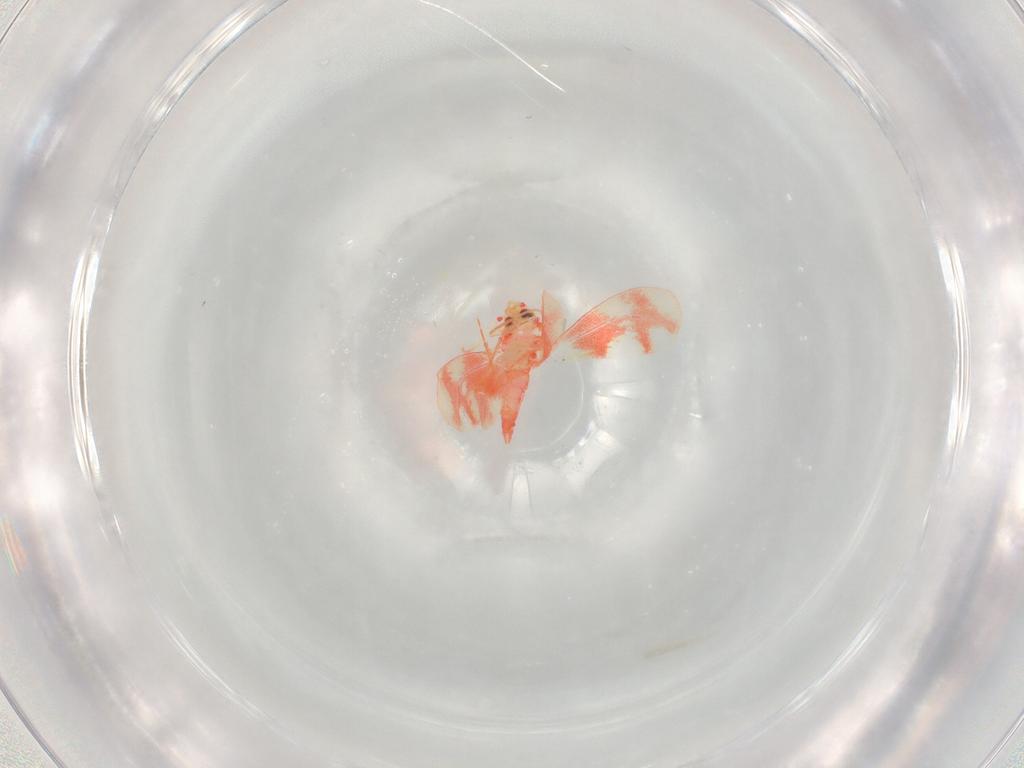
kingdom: Animalia
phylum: Arthropoda
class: Insecta
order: Hemiptera
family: Aleyrodidae
